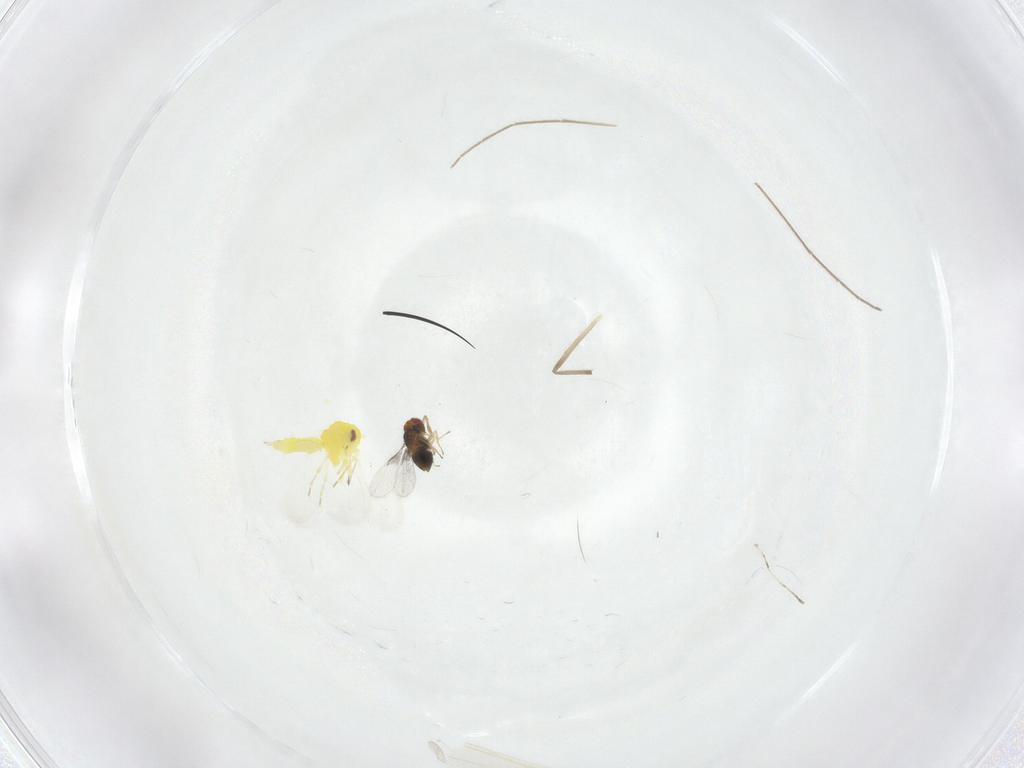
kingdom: Animalia
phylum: Arthropoda
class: Insecta
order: Hemiptera
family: Aleyrodidae
